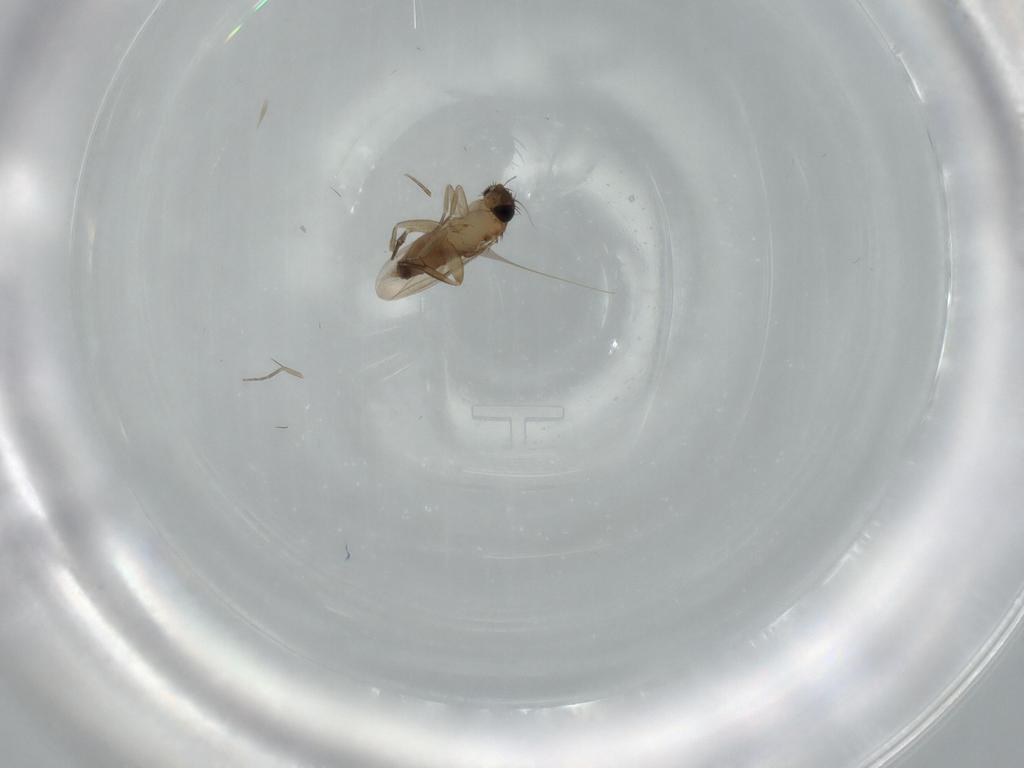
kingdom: Animalia
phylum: Arthropoda
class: Insecta
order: Diptera
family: Phoridae
